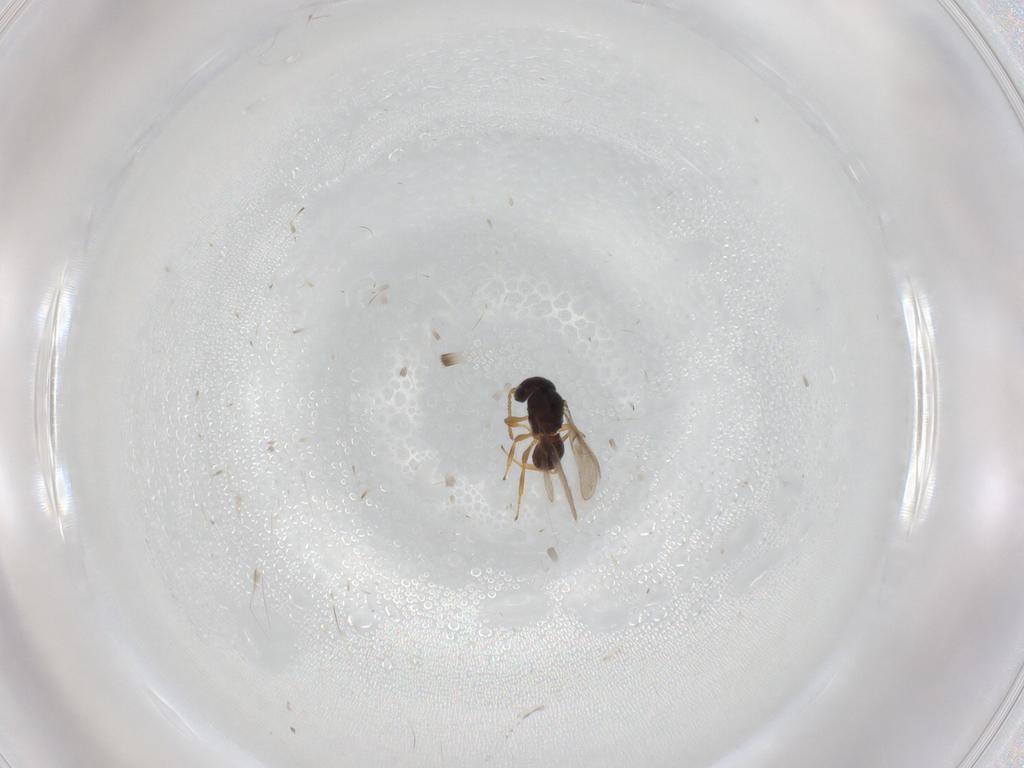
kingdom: Animalia
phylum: Arthropoda
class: Insecta
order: Hymenoptera
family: Scelionidae
